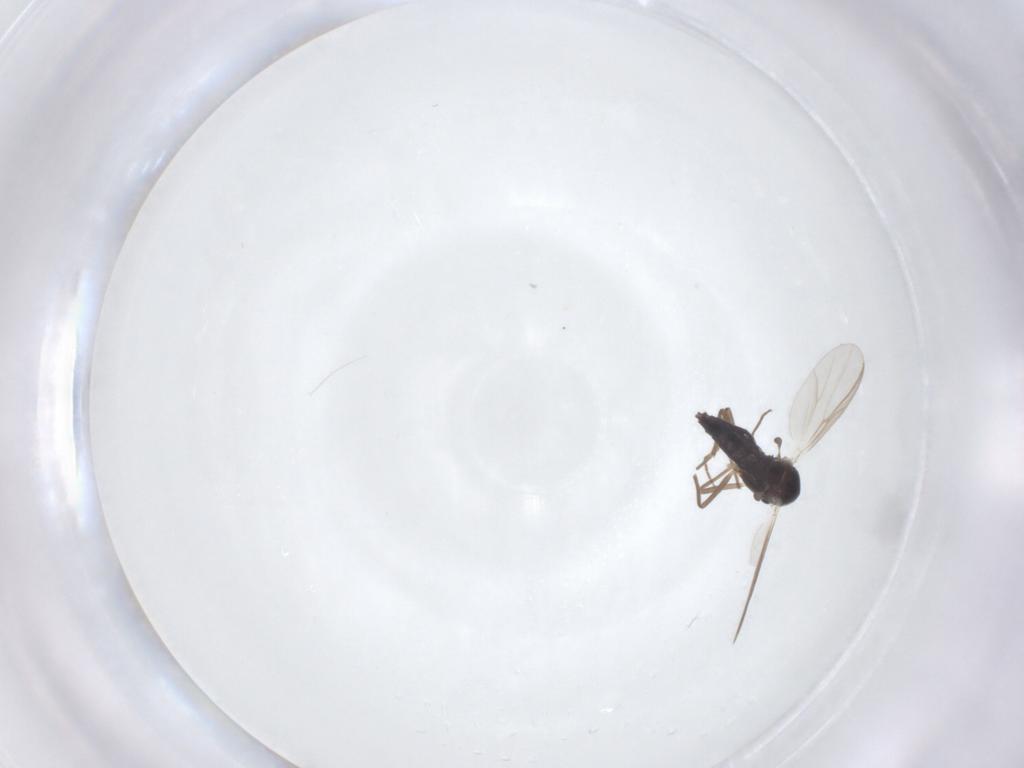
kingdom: Animalia
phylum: Arthropoda
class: Insecta
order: Diptera
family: Chironomidae
